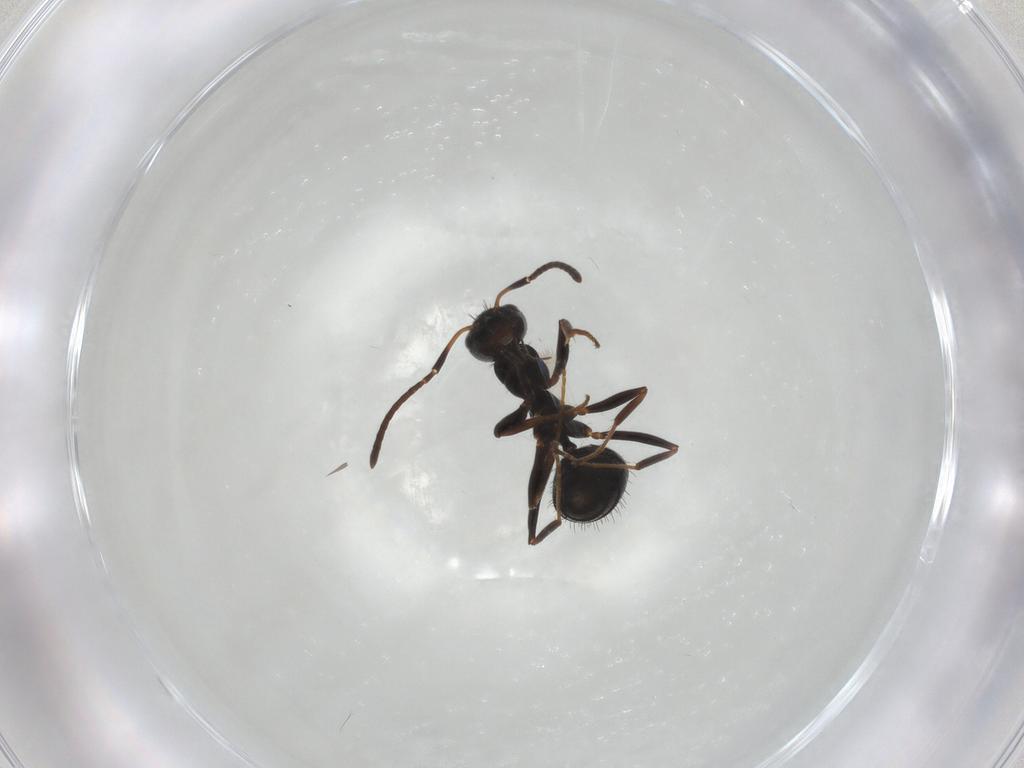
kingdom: Animalia
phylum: Arthropoda
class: Insecta
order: Hymenoptera
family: Formicidae
